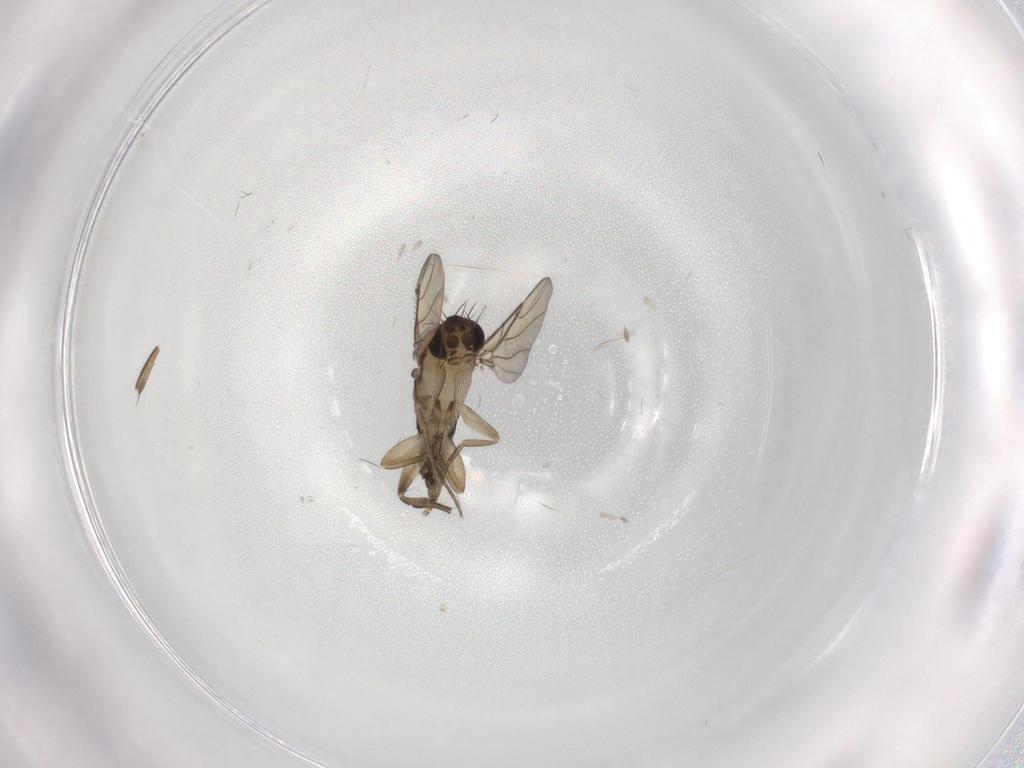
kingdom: Animalia
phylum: Arthropoda
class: Insecta
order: Diptera
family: Phoridae
